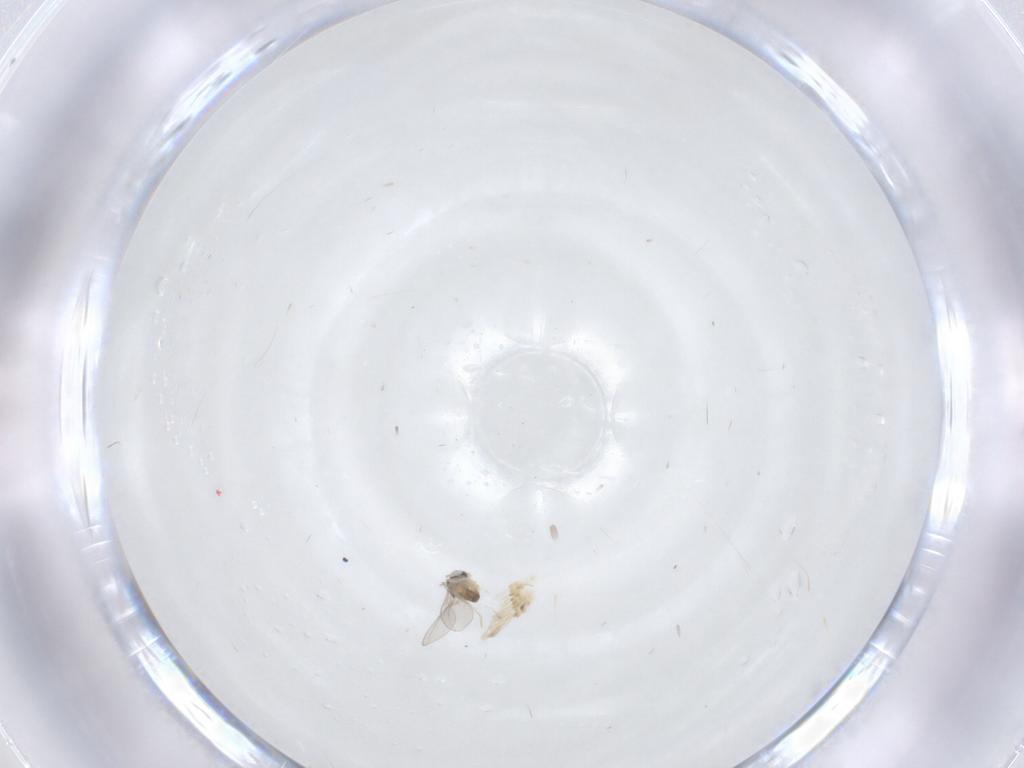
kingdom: Animalia
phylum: Arthropoda
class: Insecta
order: Diptera
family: Cecidomyiidae
